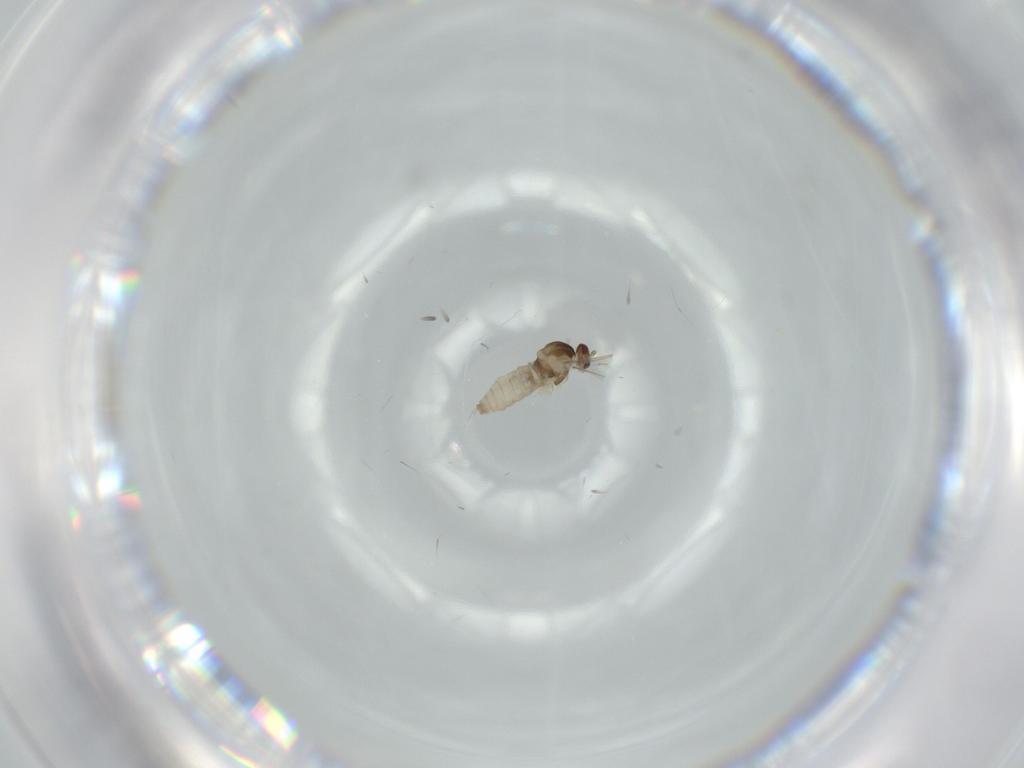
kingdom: Animalia
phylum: Arthropoda
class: Insecta
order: Diptera
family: Cecidomyiidae
